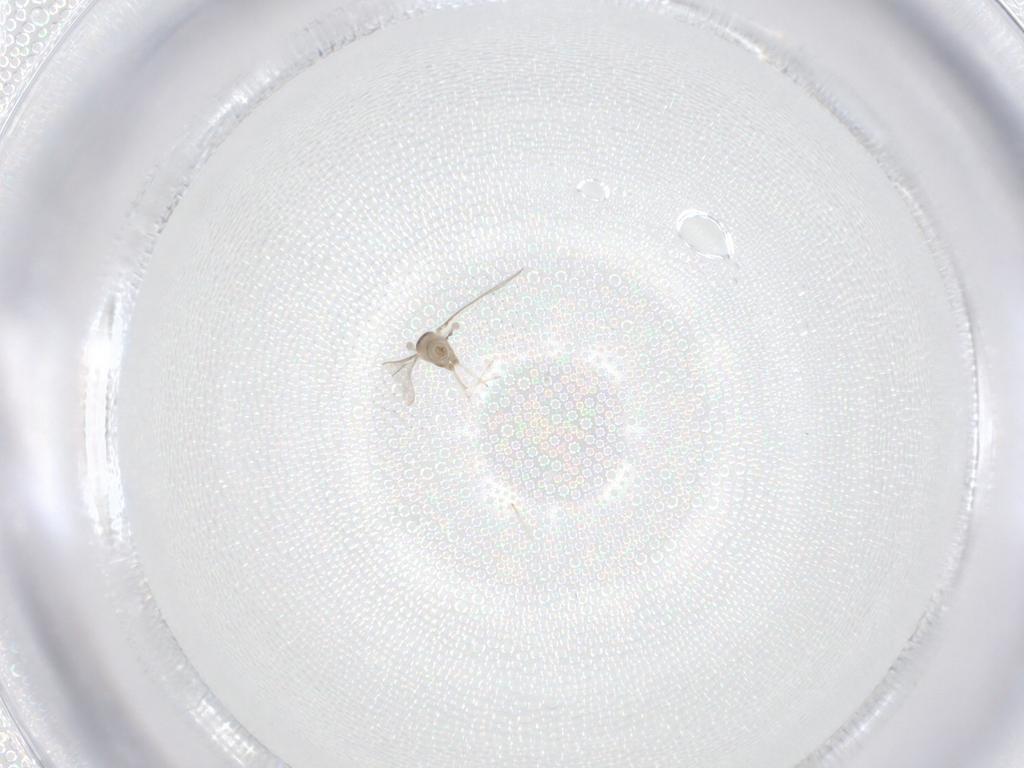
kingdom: Animalia
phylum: Arthropoda
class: Insecta
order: Diptera
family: Cecidomyiidae
